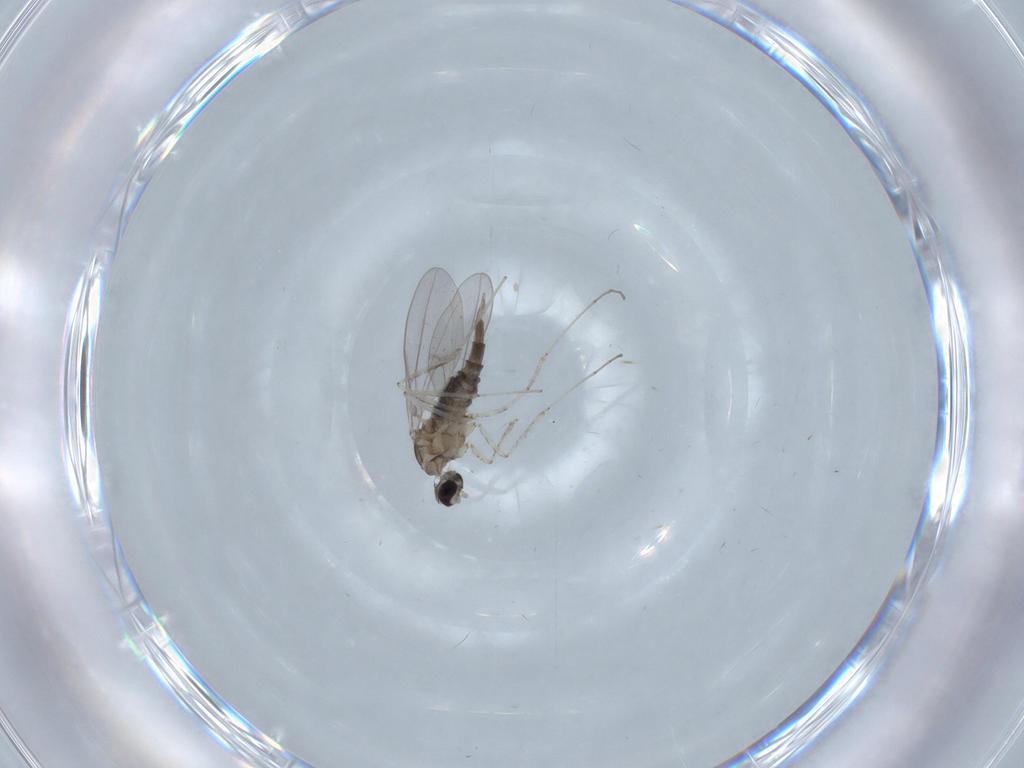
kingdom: Animalia
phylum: Arthropoda
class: Insecta
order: Diptera
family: Cecidomyiidae
